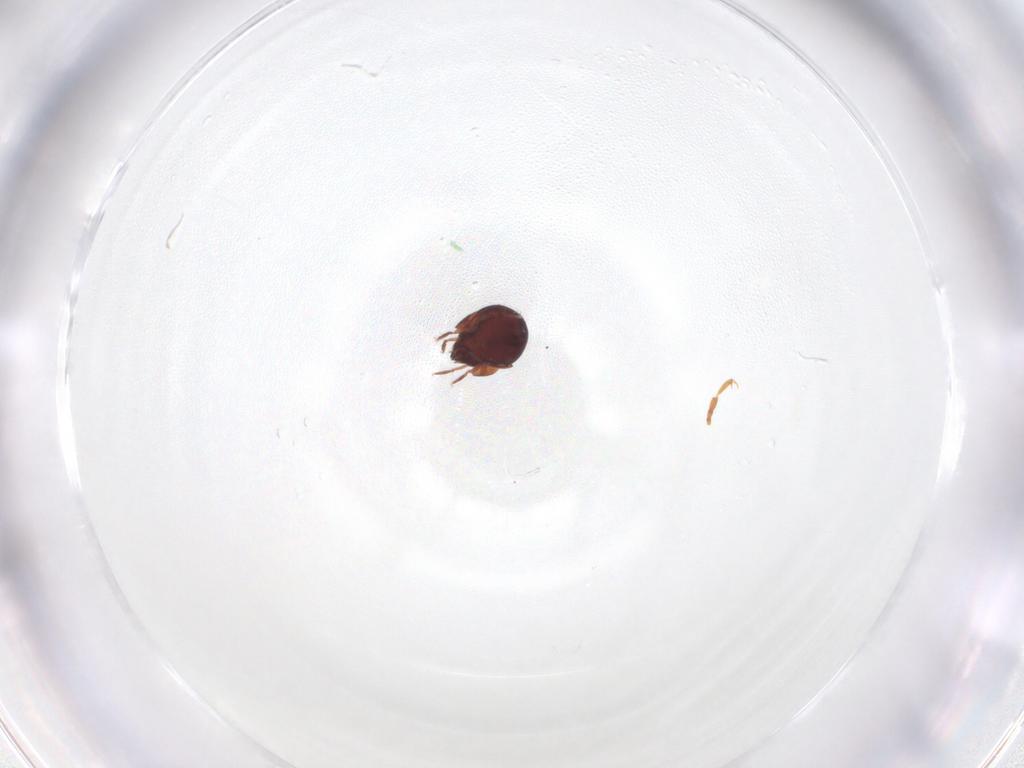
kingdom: Animalia
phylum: Arthropoda
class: Arachnida
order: Sarcoptiformes
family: Humerobatidae
